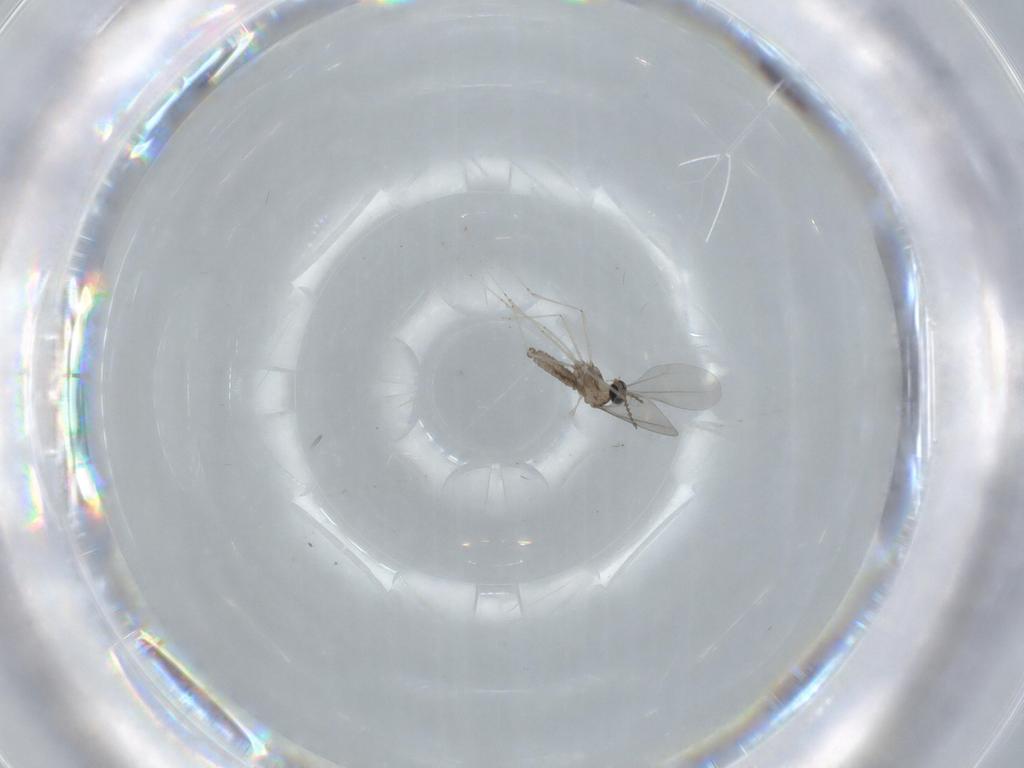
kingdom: Animalia
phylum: Arthropoda
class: Insecta
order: Diptera
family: Cecidomyiidae
